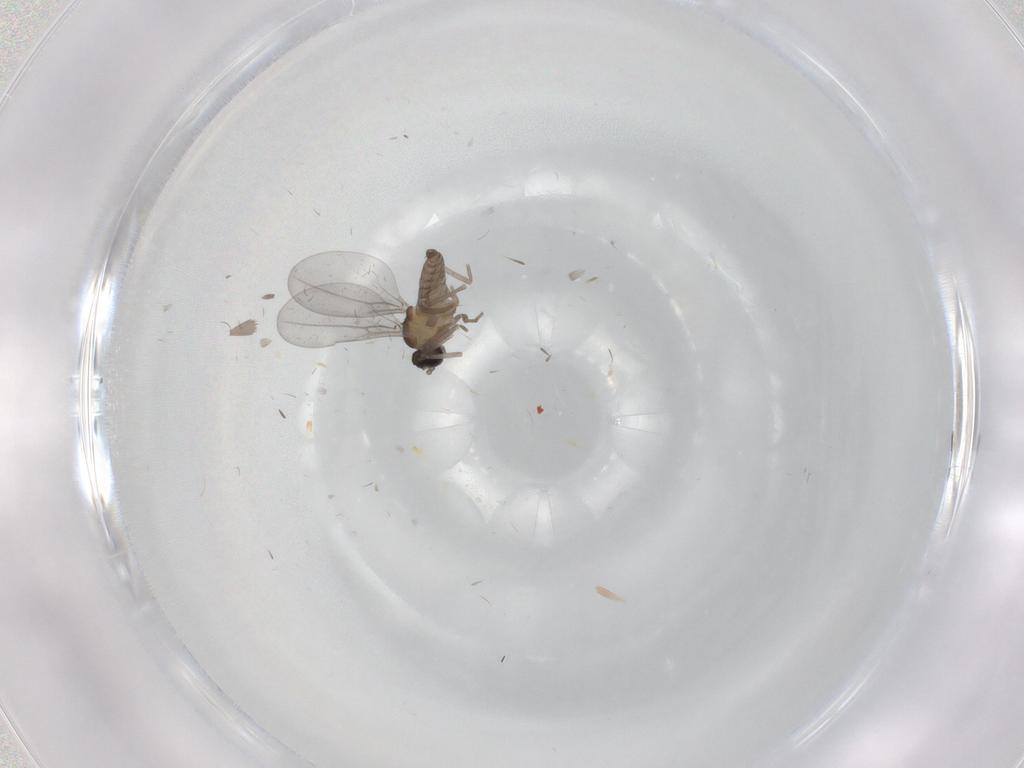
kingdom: Animalia
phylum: Arthropoda
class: Insecta
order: Diptera
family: Cecidomyiidae
